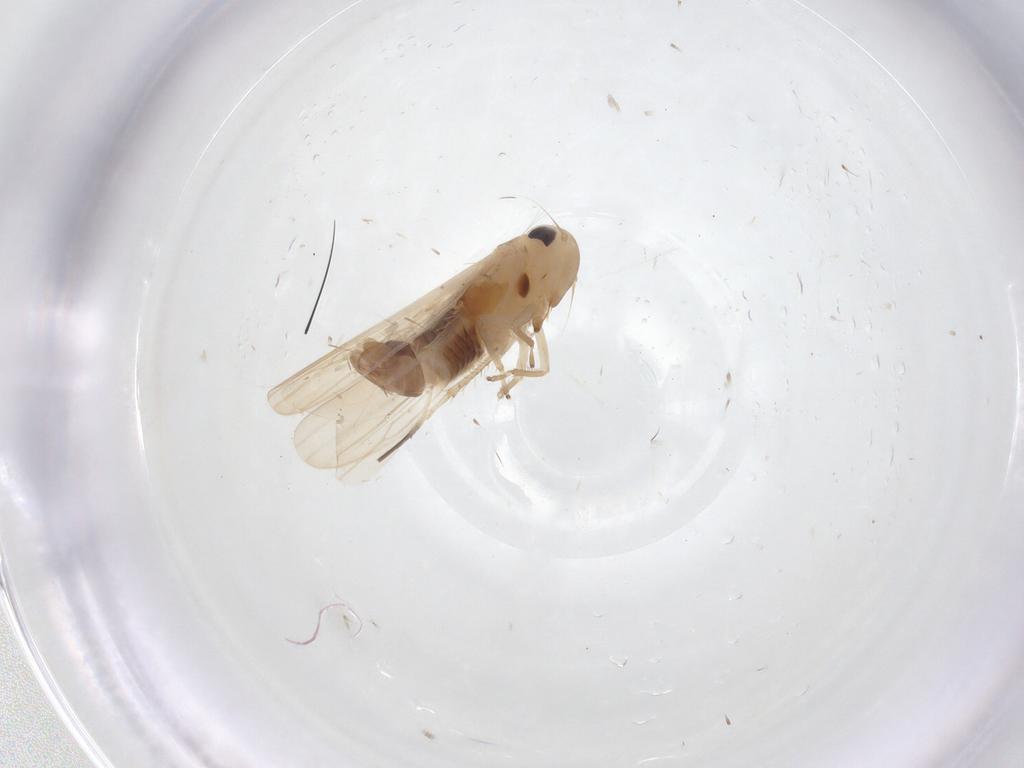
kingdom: Animalia
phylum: Arthropoda
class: Insecta
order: Hemiptera
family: Cicadellidae
